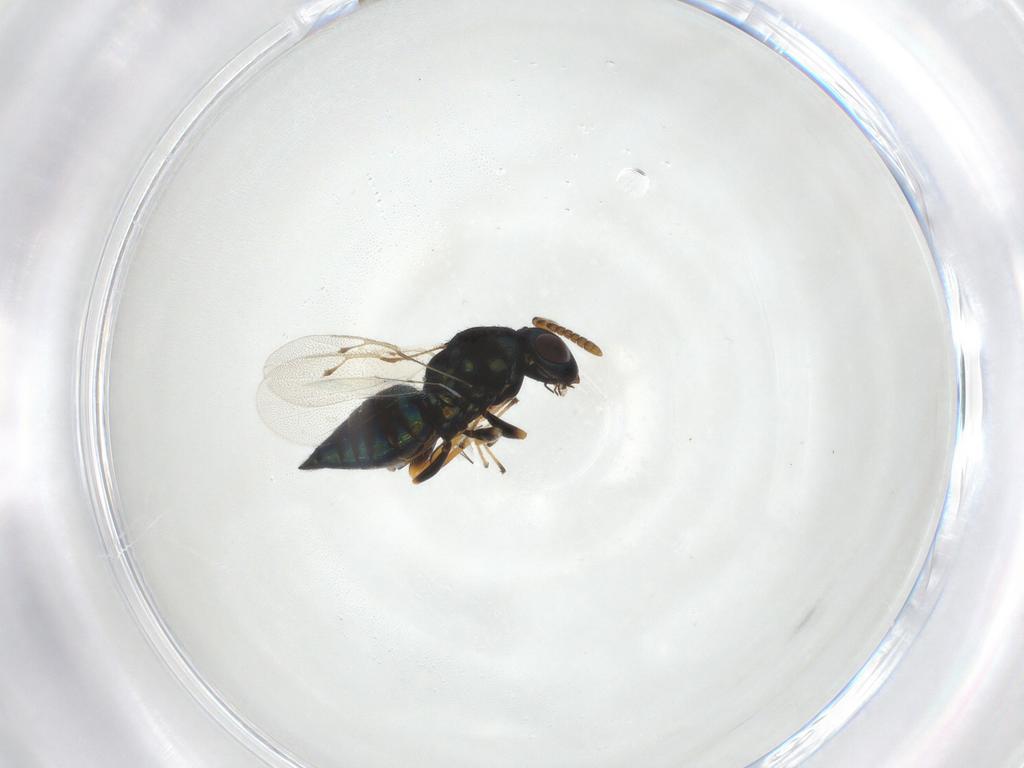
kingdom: Animalia
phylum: Arthropoda
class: Insecta
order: Hymenoptera
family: Pteromalidae
